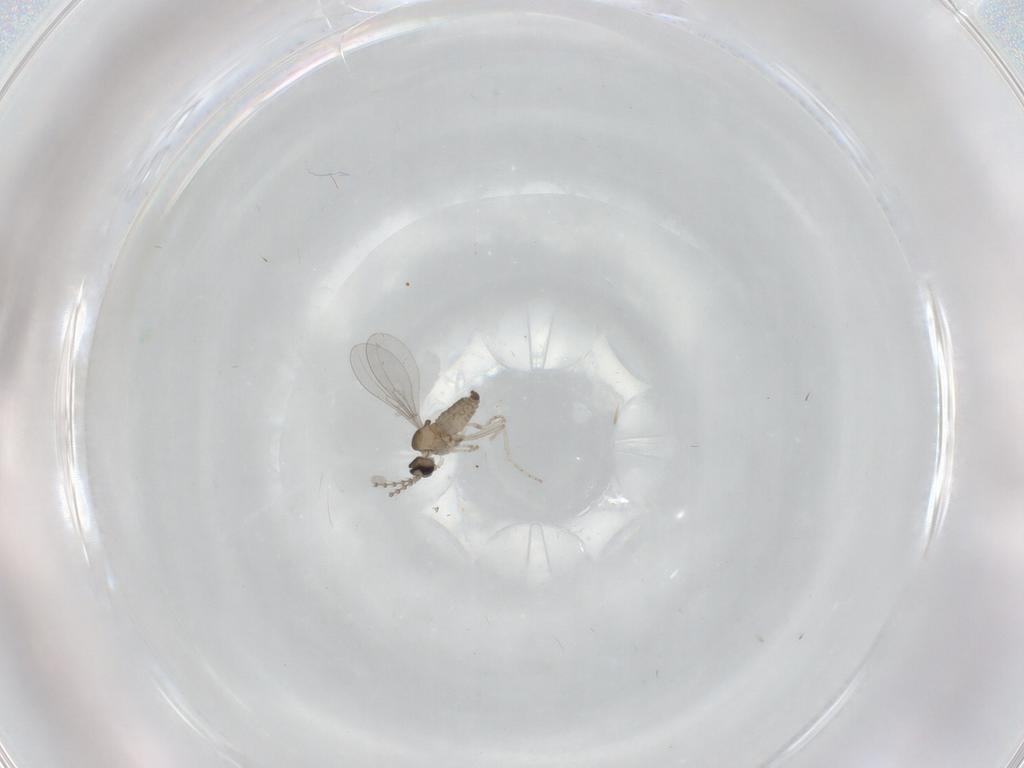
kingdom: Animalia
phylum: Arthropoda
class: Insecta
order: Diptera
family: Cecidomyiidae
